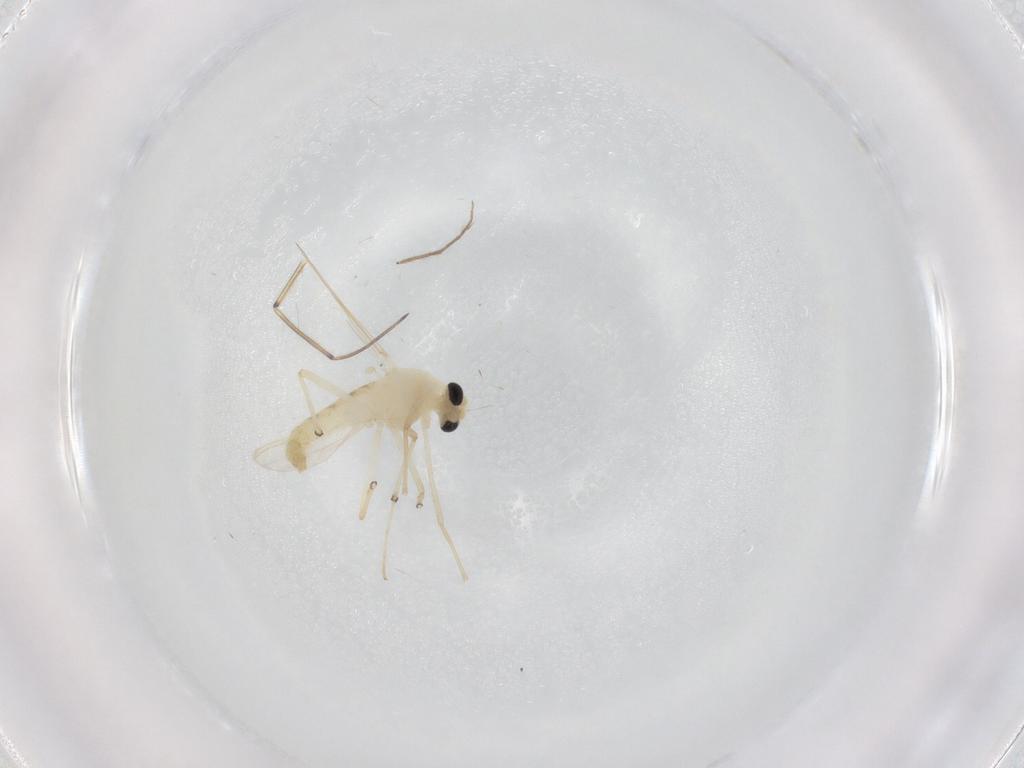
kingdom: Animalia
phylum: Arthropoda
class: Insecta
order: Diptera
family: Chironomidae
